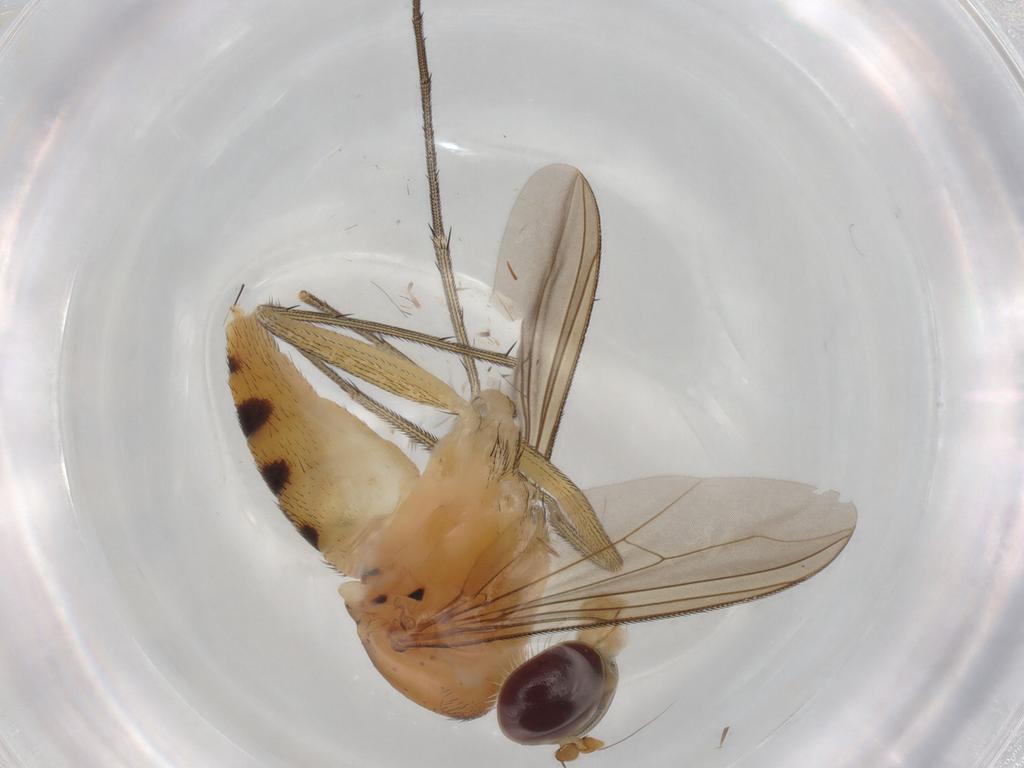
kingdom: Animalia
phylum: Arthropoda
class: Insecta
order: Diptera
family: Dolichopodidae
